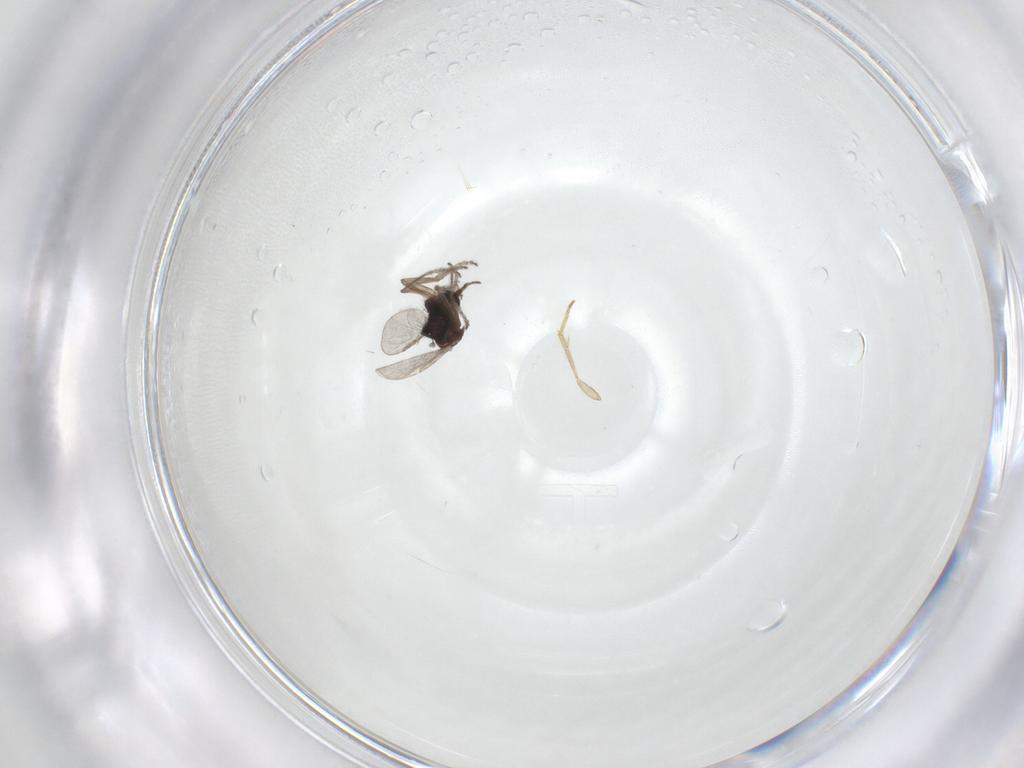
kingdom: Animalia
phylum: Arthropoda
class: Insecta
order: Diptera
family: Ceratopogonidae
